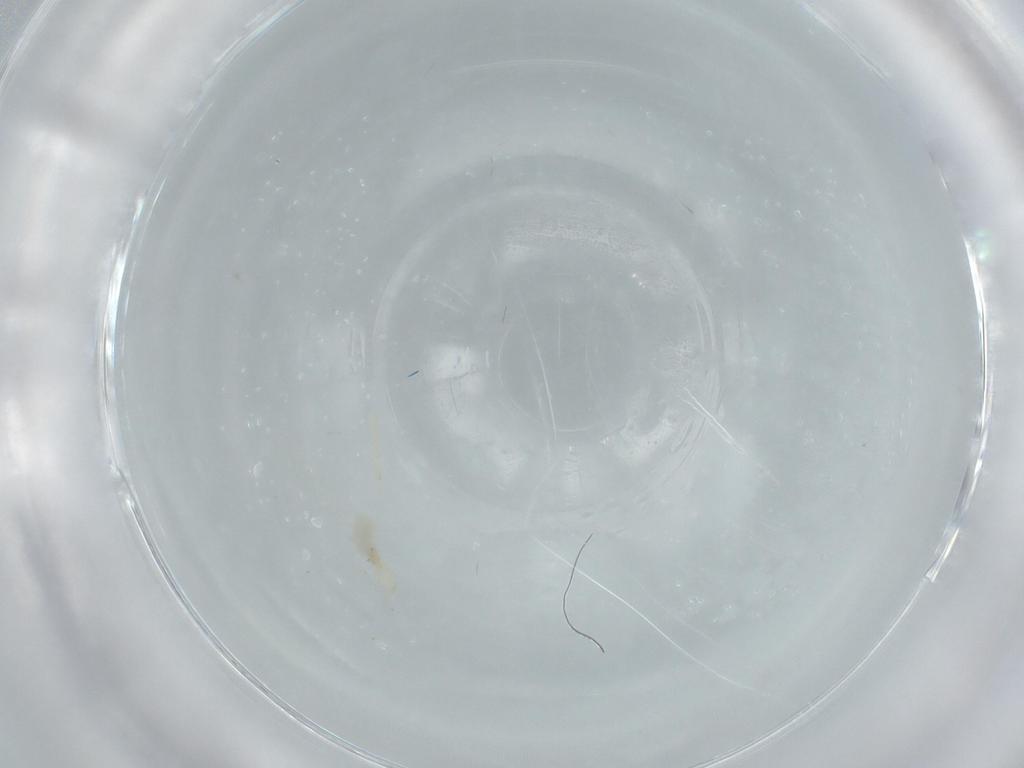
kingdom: Animalia
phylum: Arthropoda
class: Insecta
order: Diptera
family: Cecidomyiidae
